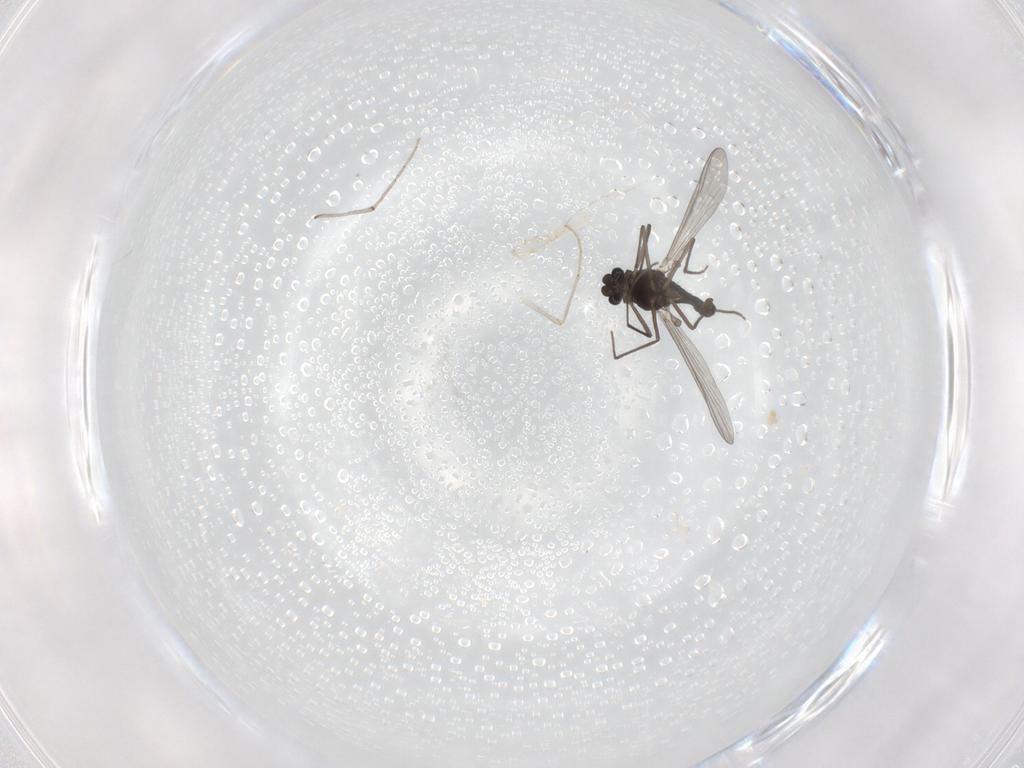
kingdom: Animalia
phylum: Arthropoda
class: Insecta
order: Diptera
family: Chironomidae
